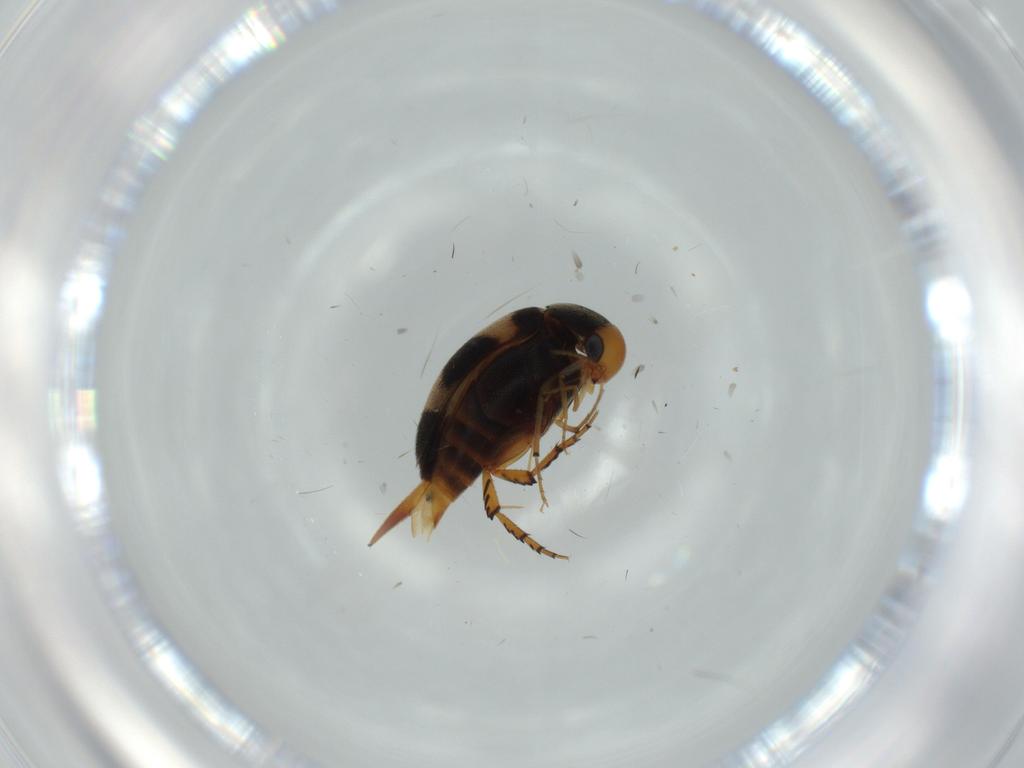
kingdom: Animalia
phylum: Arthropoda
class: Insecta
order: Coleoptera
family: Mordellidae
